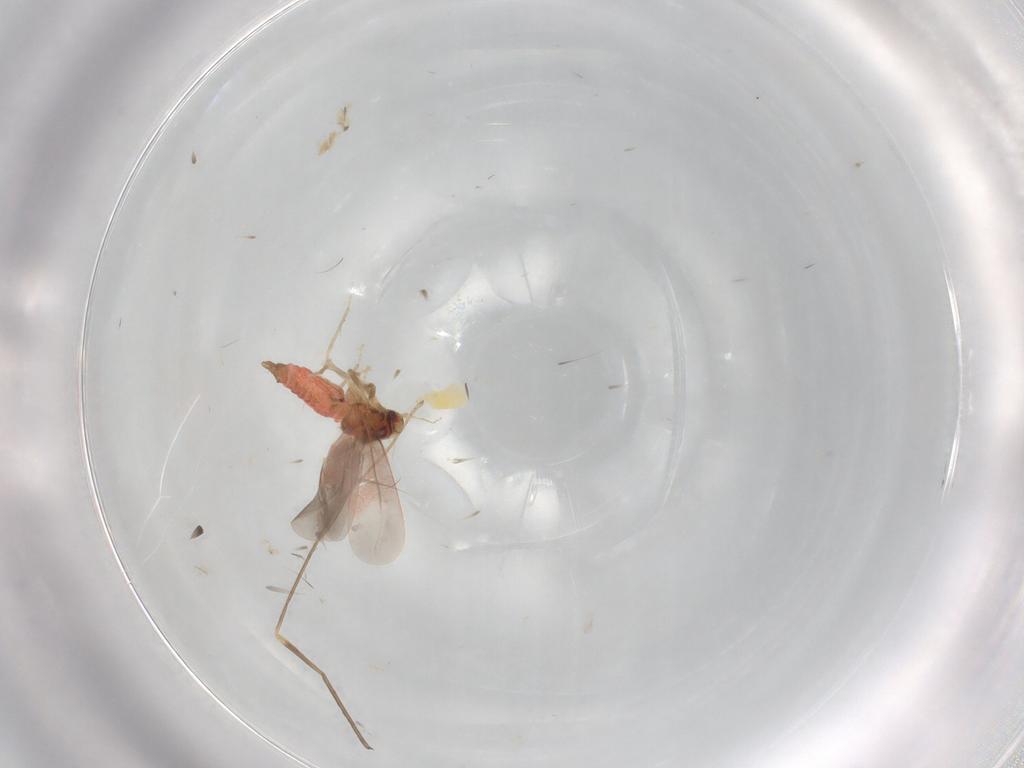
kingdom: Animalia
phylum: Arthropoda
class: Insecta
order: Hemiptera
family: Aleyrodidae
